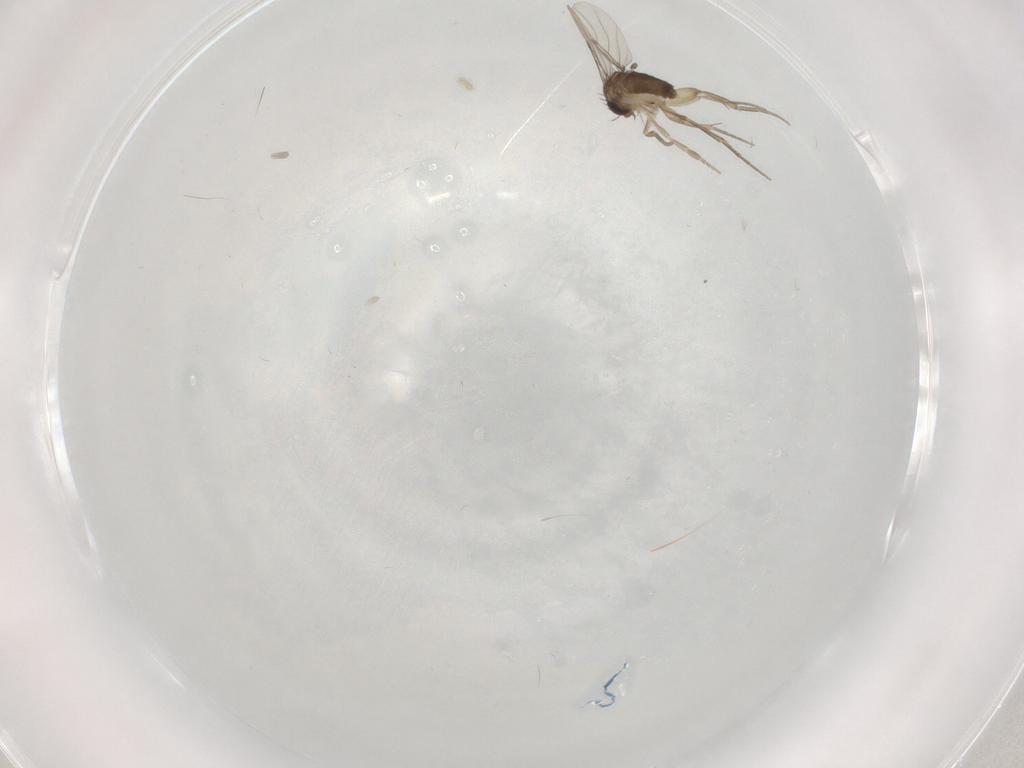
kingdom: Animalia
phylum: Arthropoda
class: Insecta
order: Diptera
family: Phoridae
